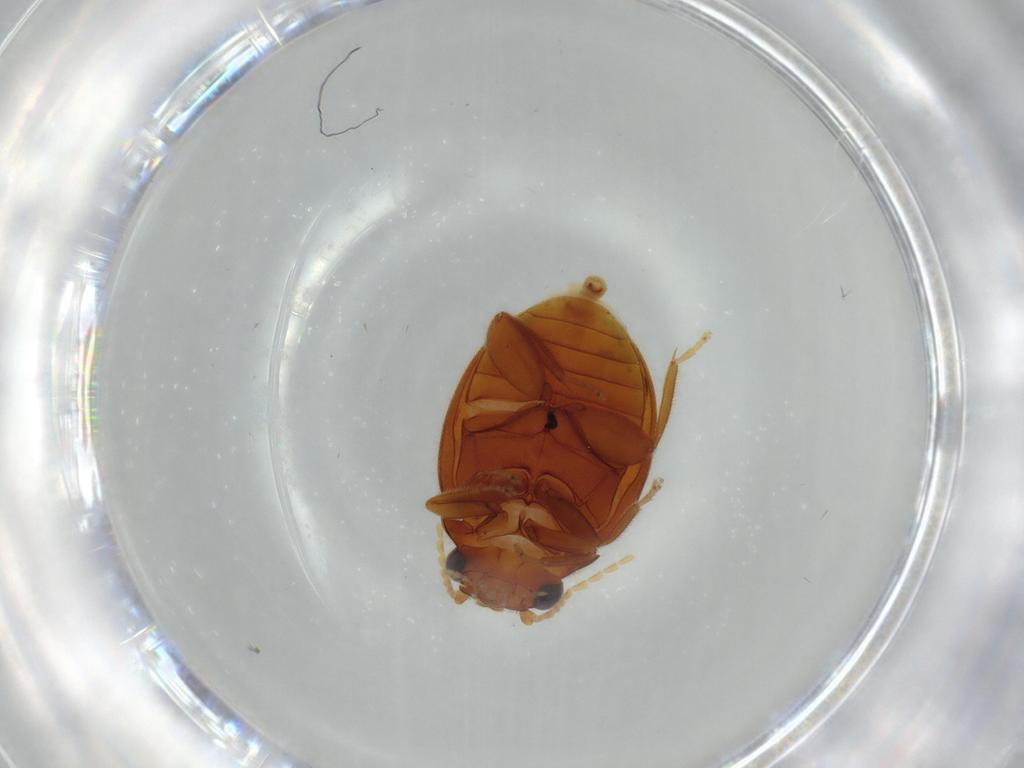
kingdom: Animalia
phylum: Arthropoda
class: Insecta
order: Coleoptera
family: Scirtidae
